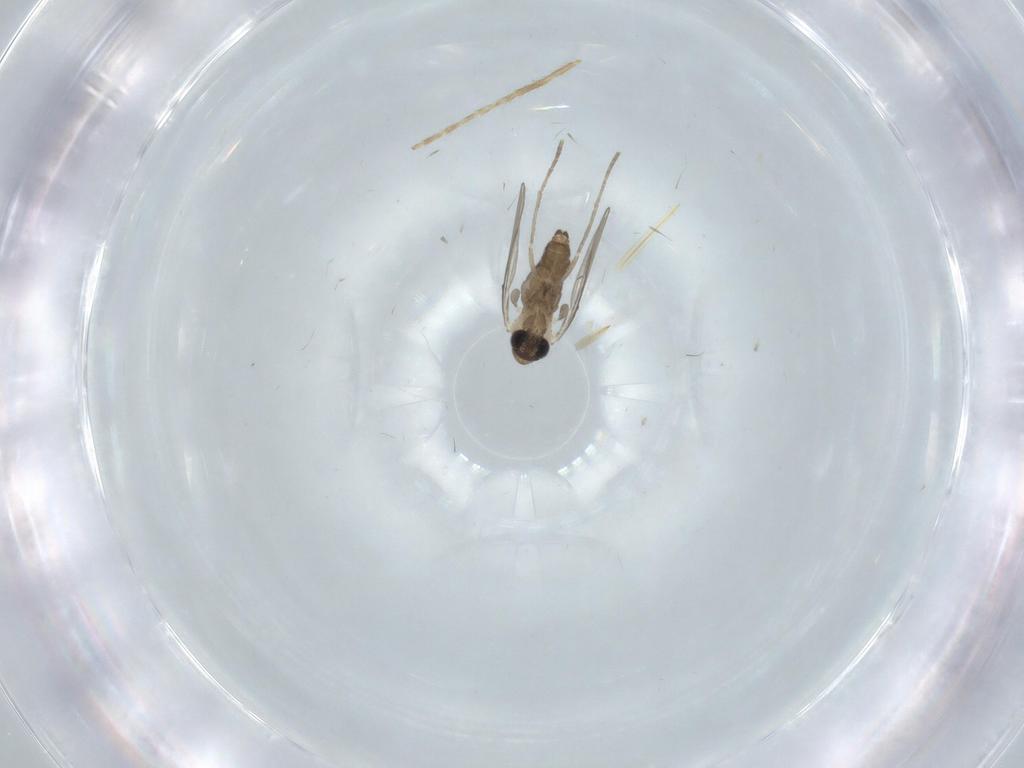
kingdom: Animalia
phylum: Arthropoda
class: Insecta
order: Diptera
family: Psychodidae
